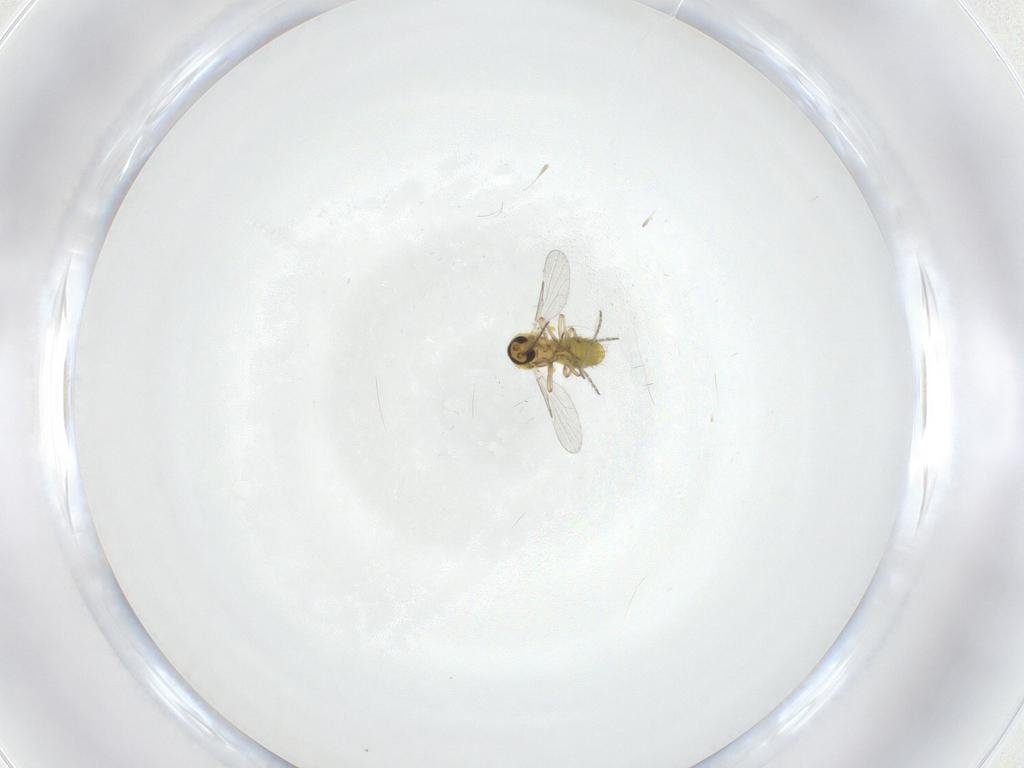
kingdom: Animalia
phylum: Arthropoda
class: Insecta
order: Diptera
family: Ceratopogonidae
